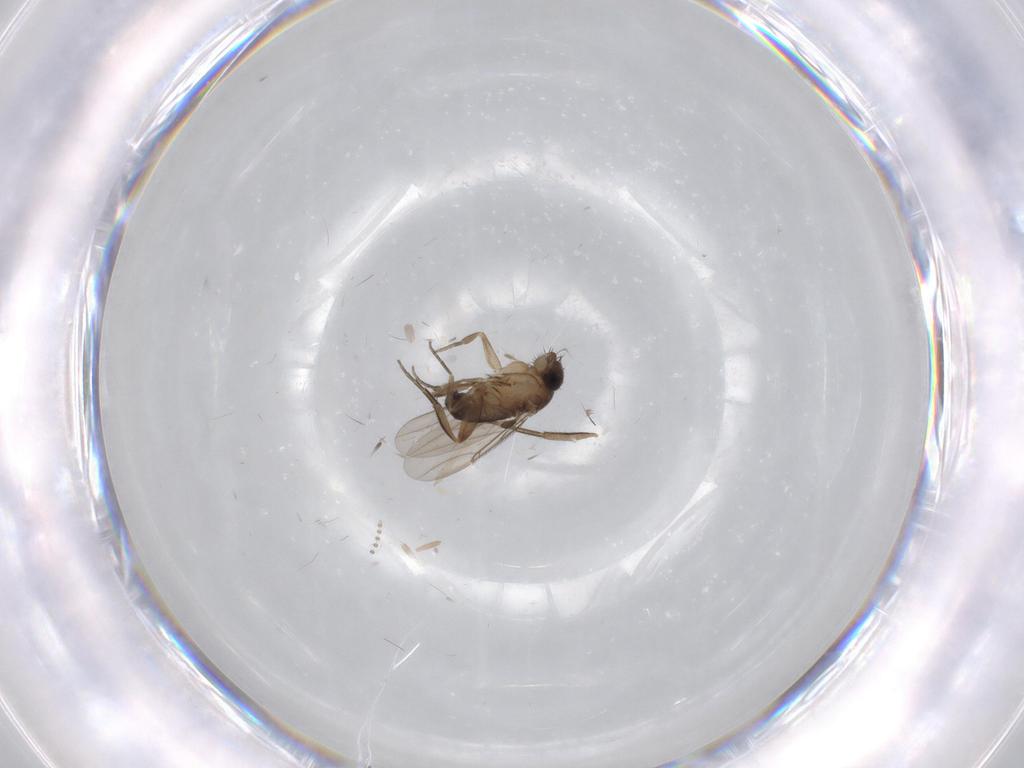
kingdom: Animalia
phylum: Arthropoda
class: Insecta
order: Diptera
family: Phoridae
